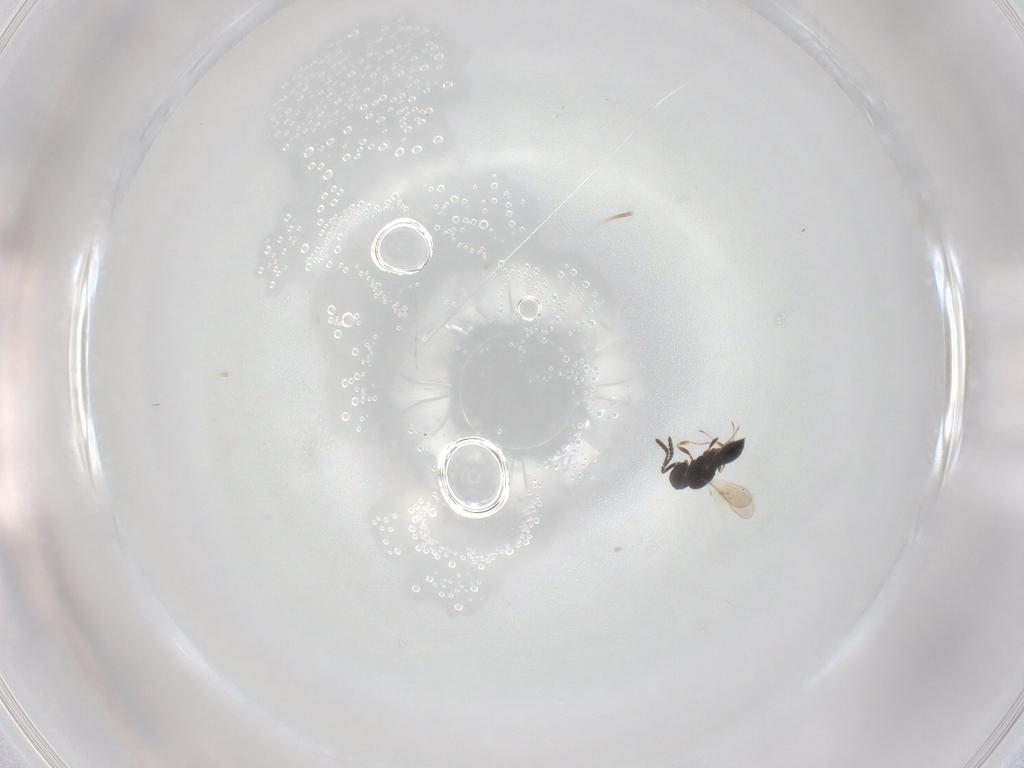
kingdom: Animalia
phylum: Arthropoda
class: Insecta
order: Hymenoptera
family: Scelionidae
